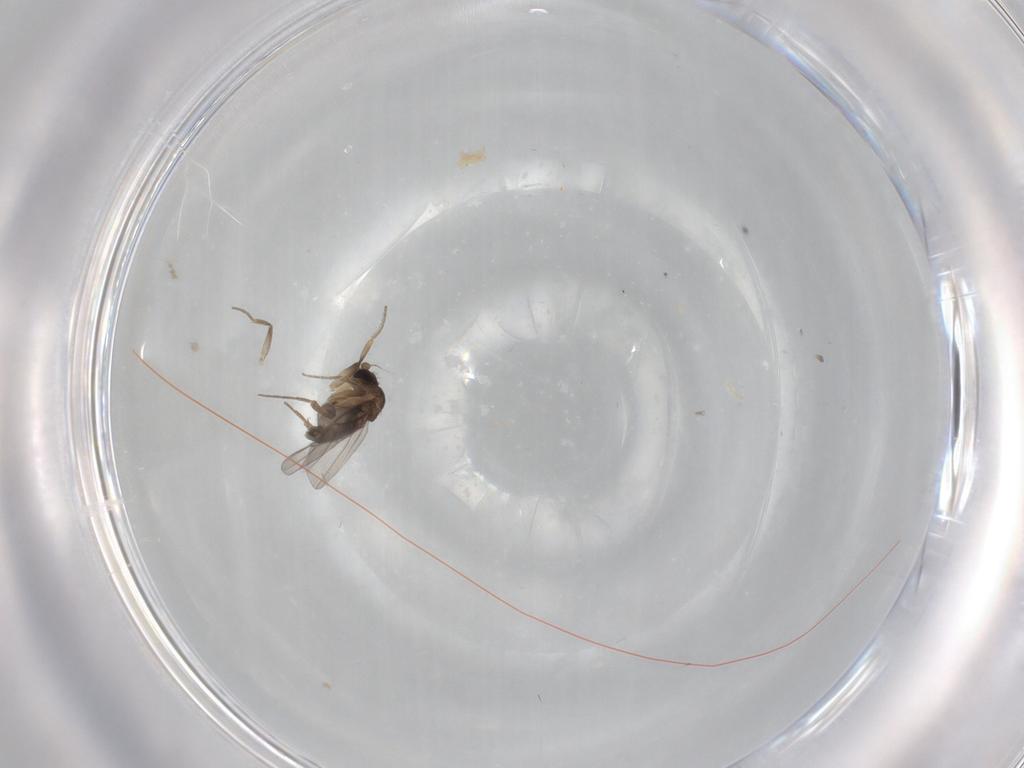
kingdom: Animalia
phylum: Arthropoda
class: Insecta
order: Diptera
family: Phoridae
